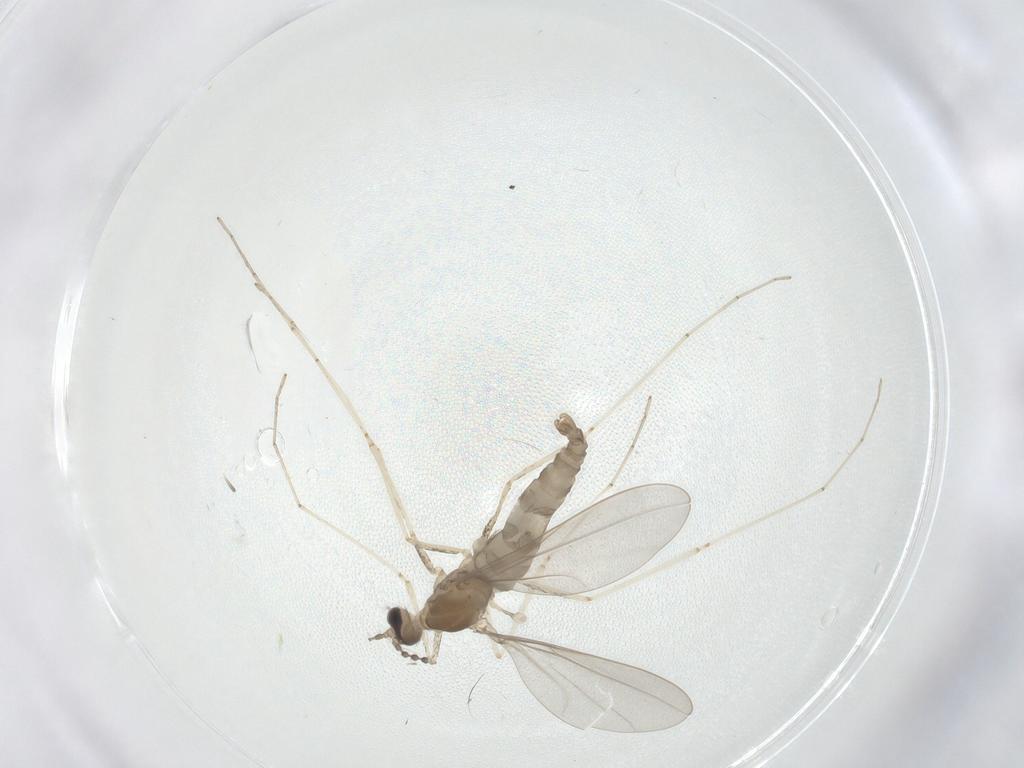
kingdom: Animalia
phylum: Arthropoda
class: Insecta
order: Diptera
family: Cecidomyiidae
